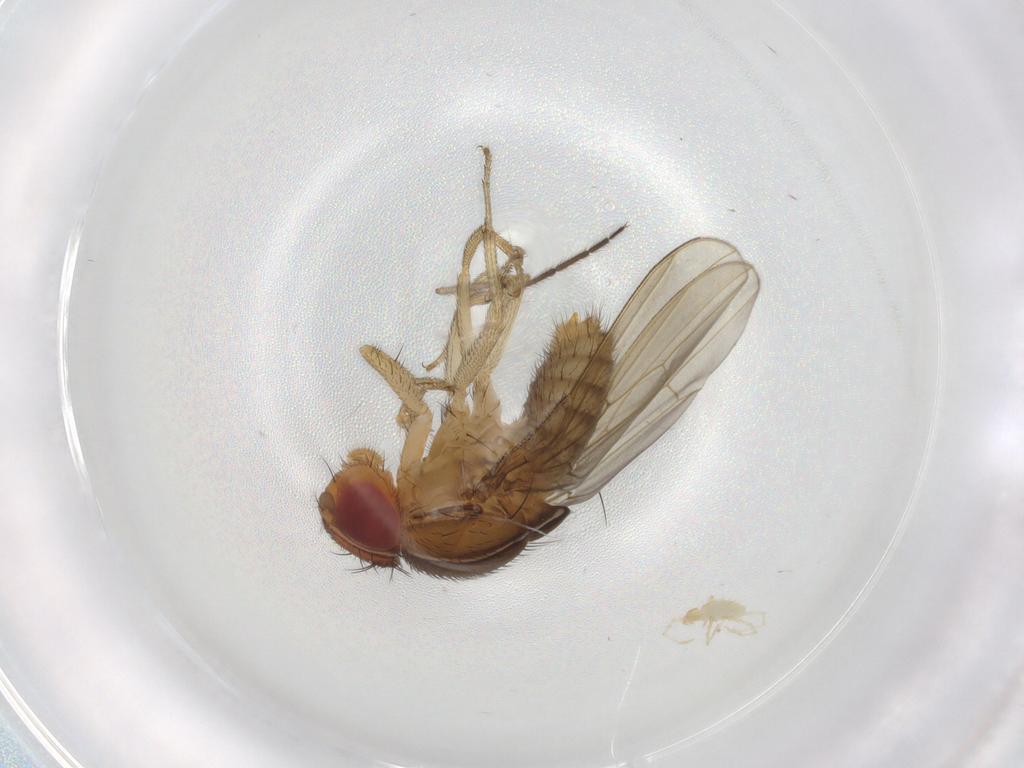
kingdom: Animalia
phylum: Arthropoda
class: Insecta
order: Diptera
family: Drosophilidae
